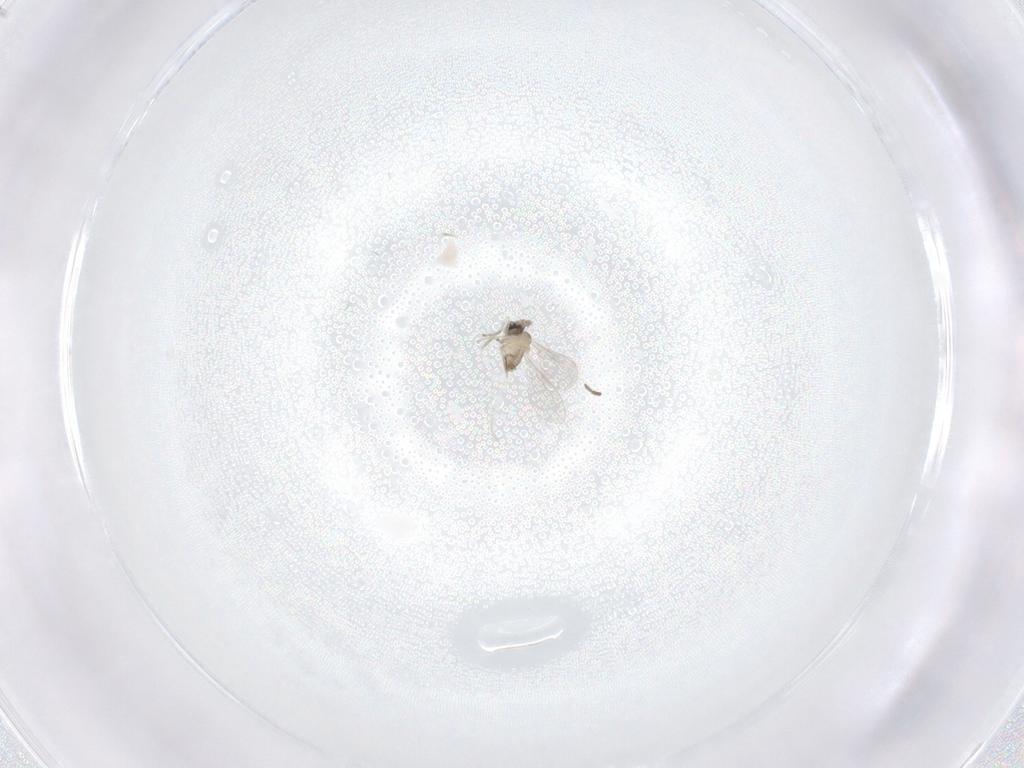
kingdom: Animalia
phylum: Arthropoda
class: Insecta
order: Diptera
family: Sciaridae
